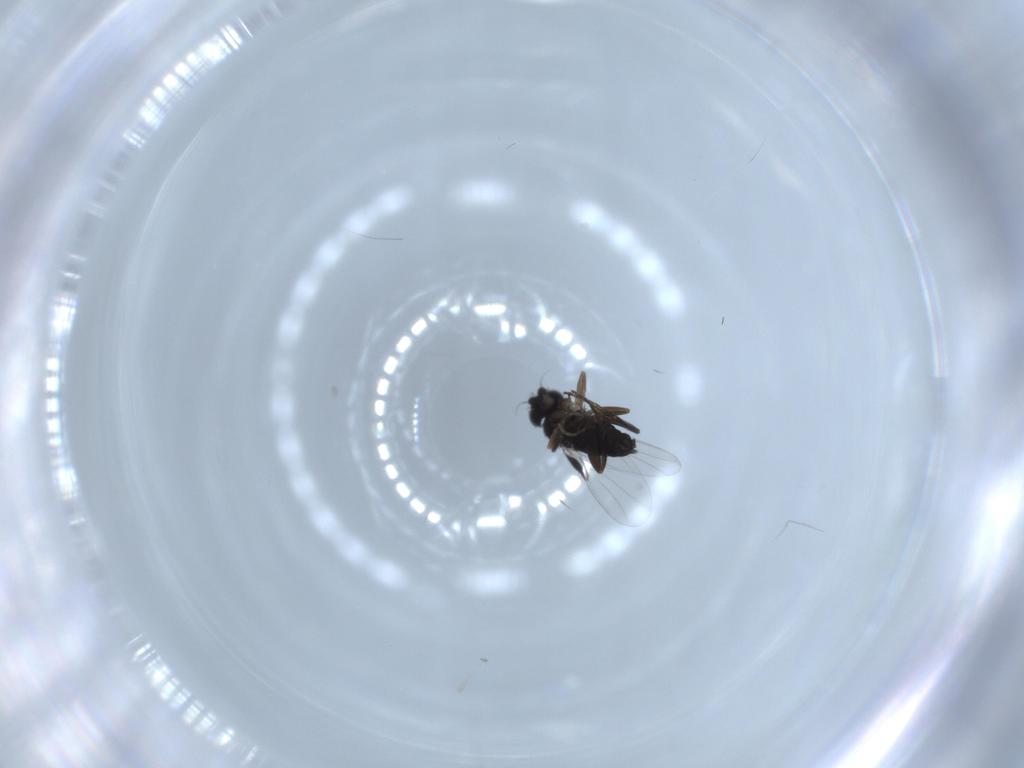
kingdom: Animalia
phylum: Arthropoda
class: Insecta
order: Diptera
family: Phoridae
